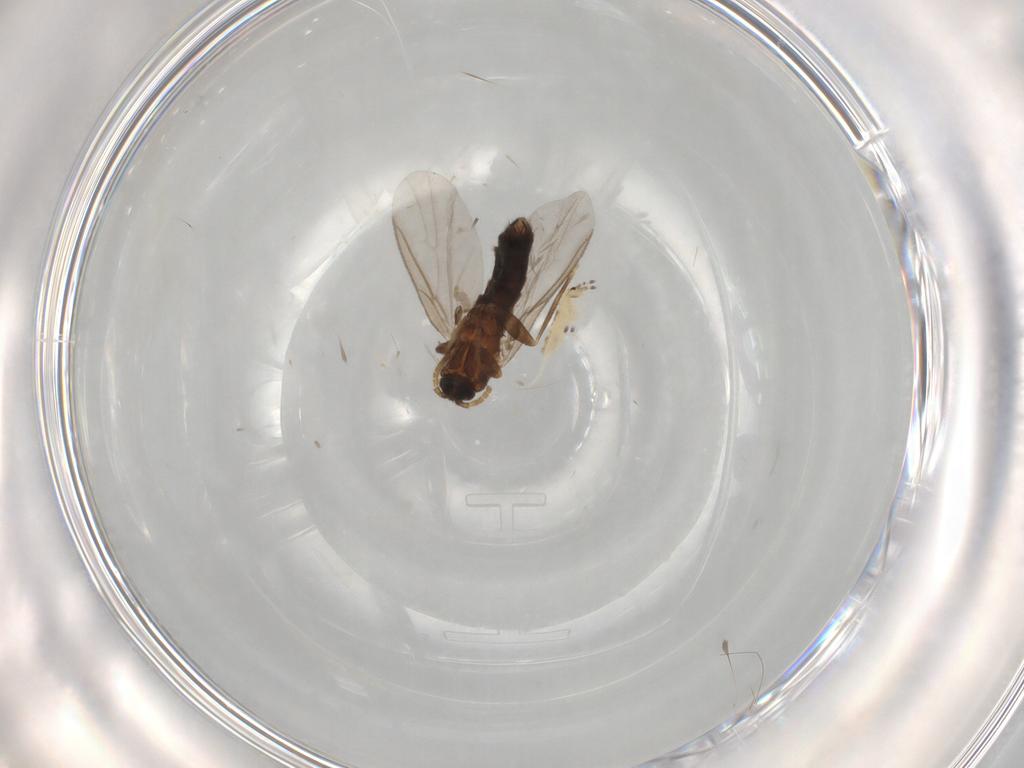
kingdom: Animalia
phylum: Arthropoda
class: Insecta
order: Diptera
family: Scatopsidae
